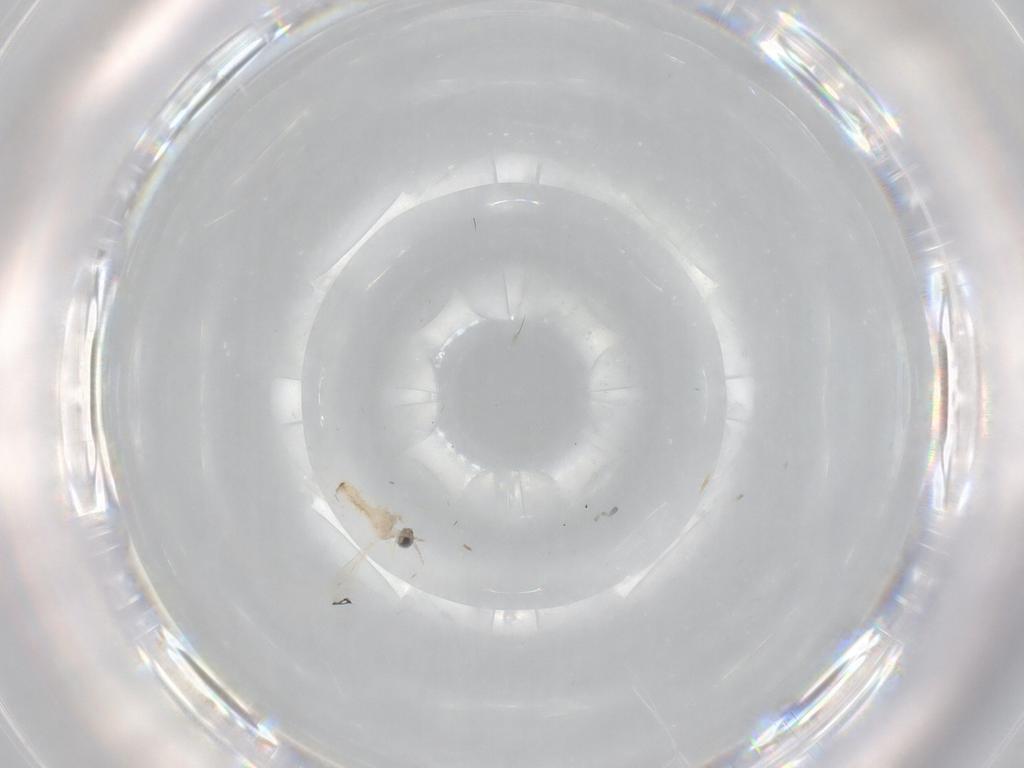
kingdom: Animalia
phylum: Arthropoda
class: Insecta
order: Diptera
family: Cecidomyiidae
